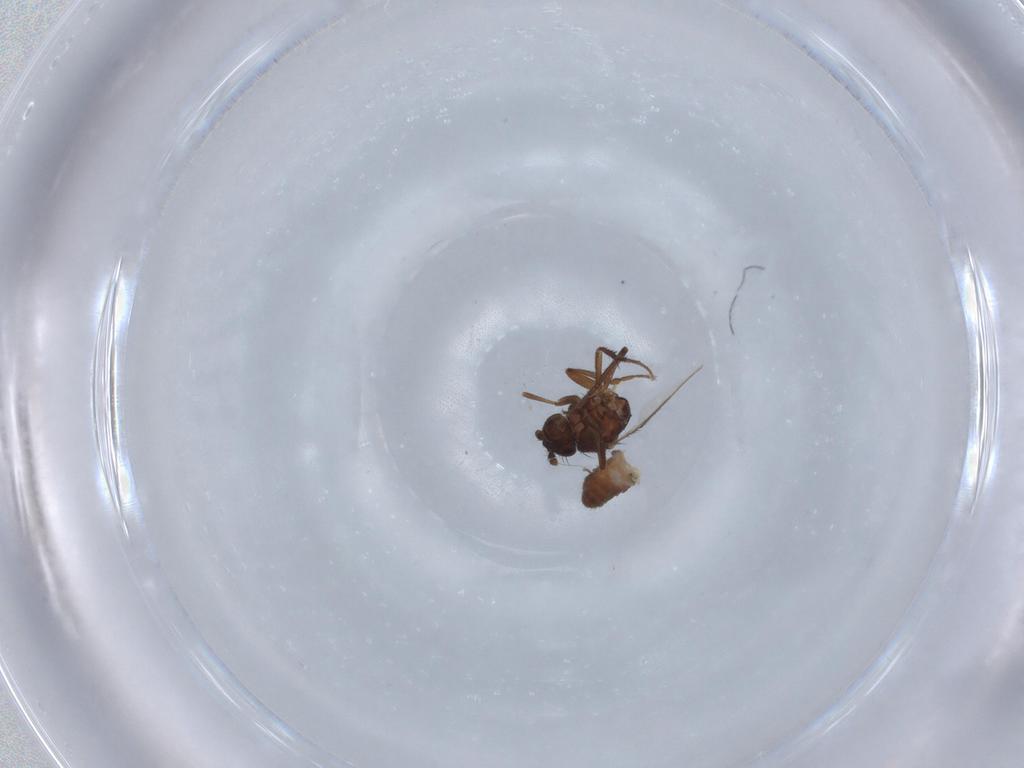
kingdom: Animalia
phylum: Arthropoda
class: Insecta
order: Diptera
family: Sphaeroceridae
